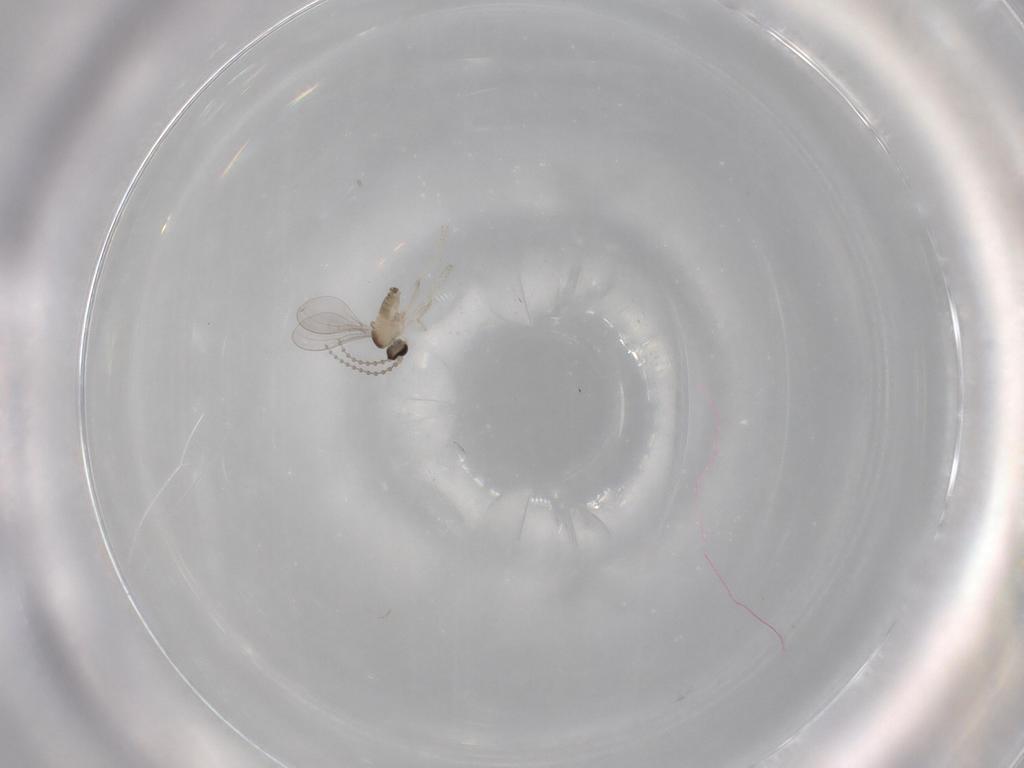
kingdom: Animalia
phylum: Arthropoda
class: Insecta
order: Diptera
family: Cecidomyiidae
